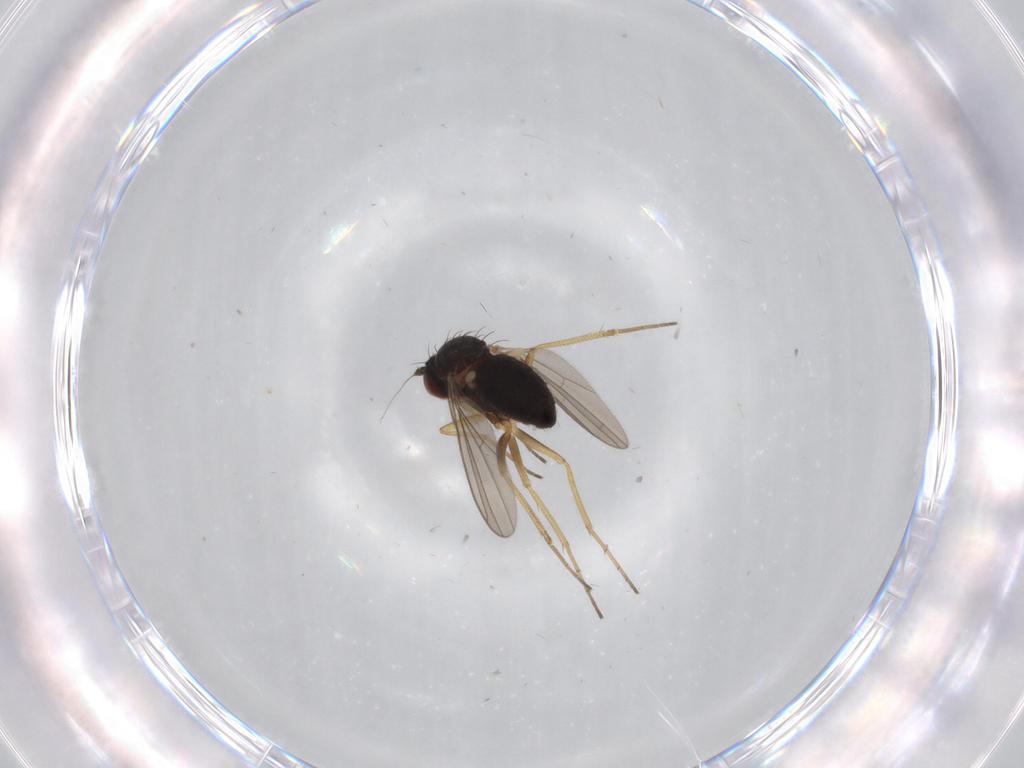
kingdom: Animalia
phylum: Arthropoda
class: Insecta
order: Diptera
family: Dolichopodidae
